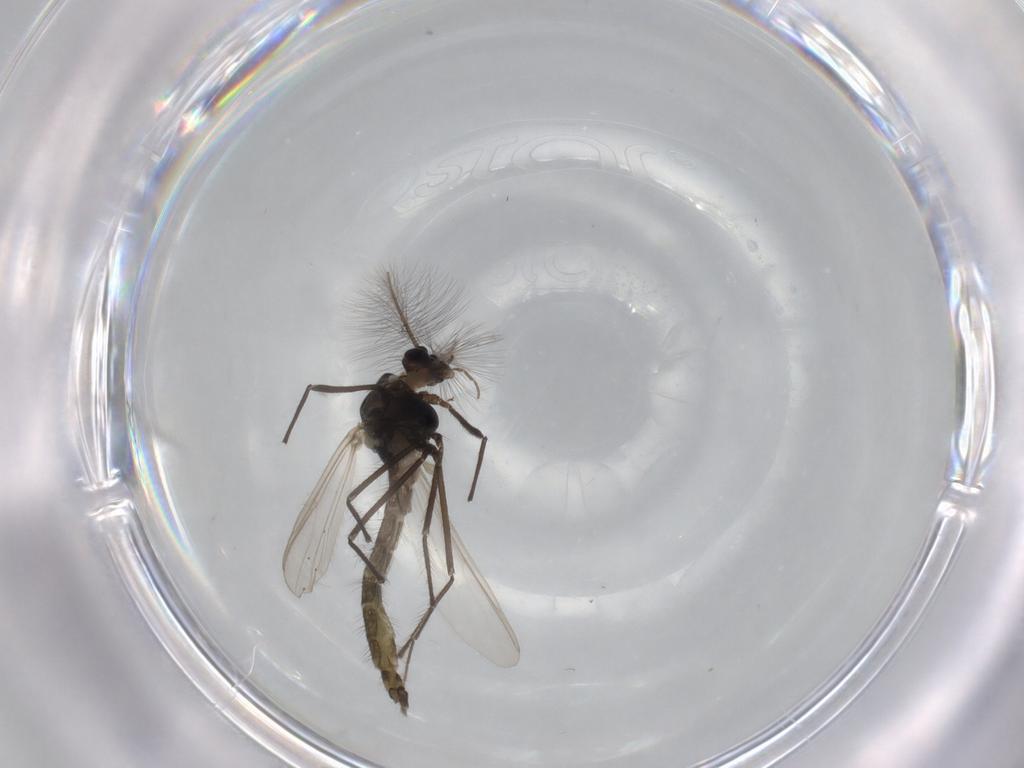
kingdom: Animalia
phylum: Arthropoda
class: Insecta
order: Diptera
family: Chironomidae
